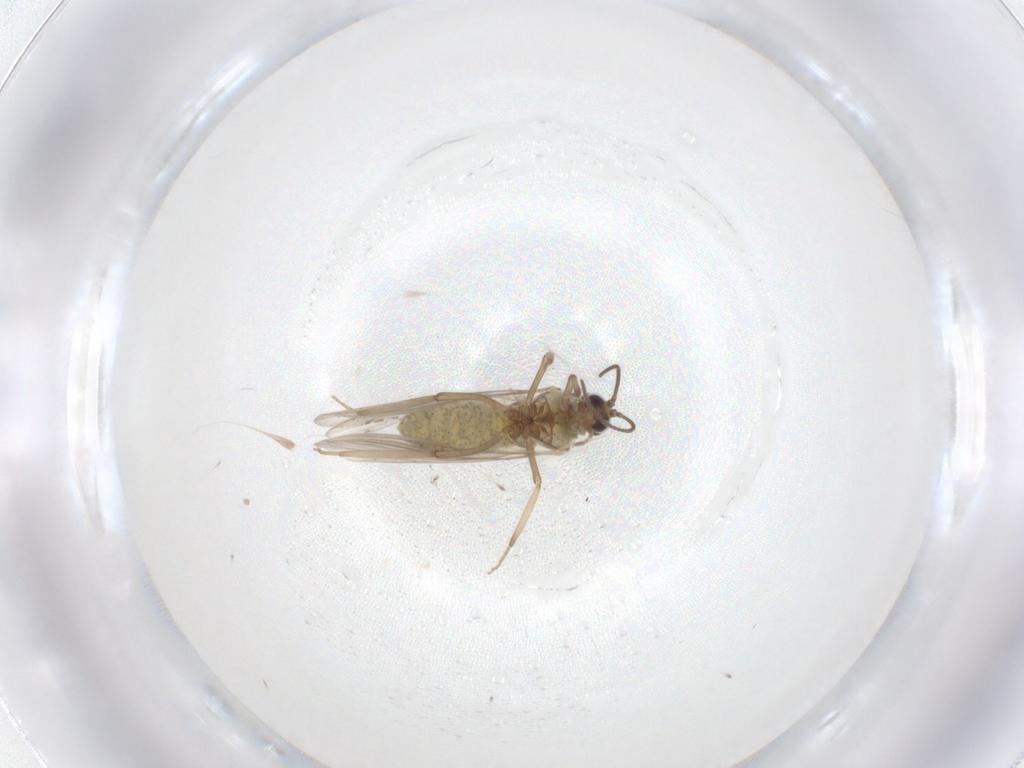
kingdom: Animalia
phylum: Arthropoda
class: Insecta
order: Neuroptera
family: Coniopterygidae
